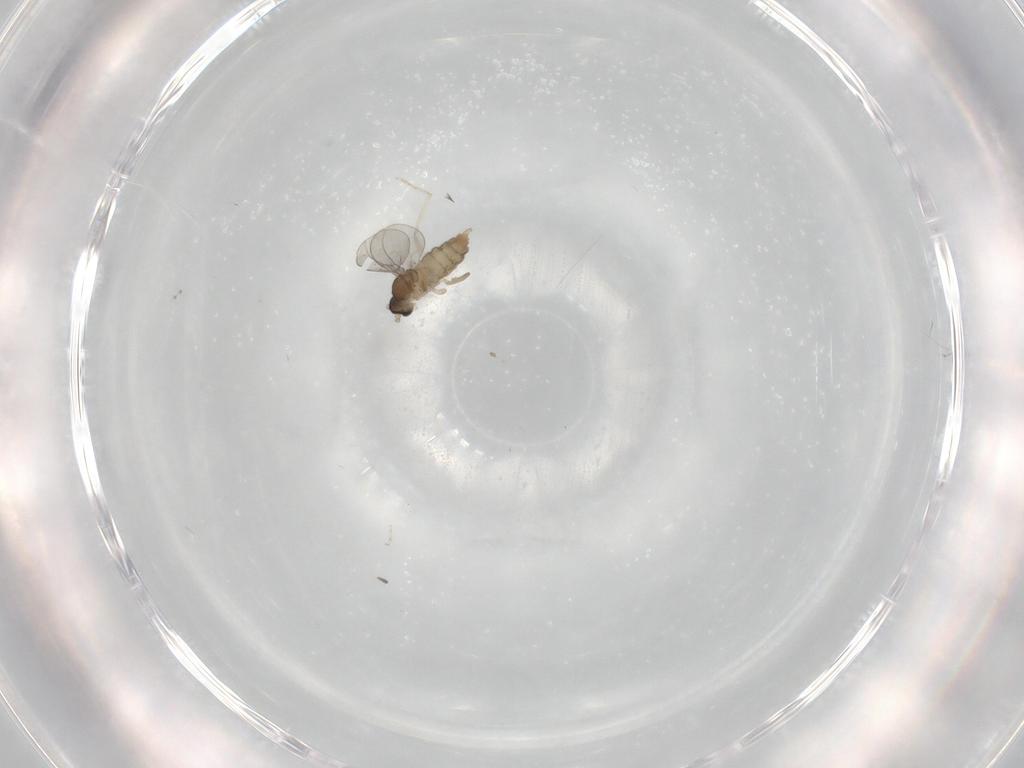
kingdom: Animalia
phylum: Arthropoda
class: Insecta
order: Diptera
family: Cecidomyiidae
